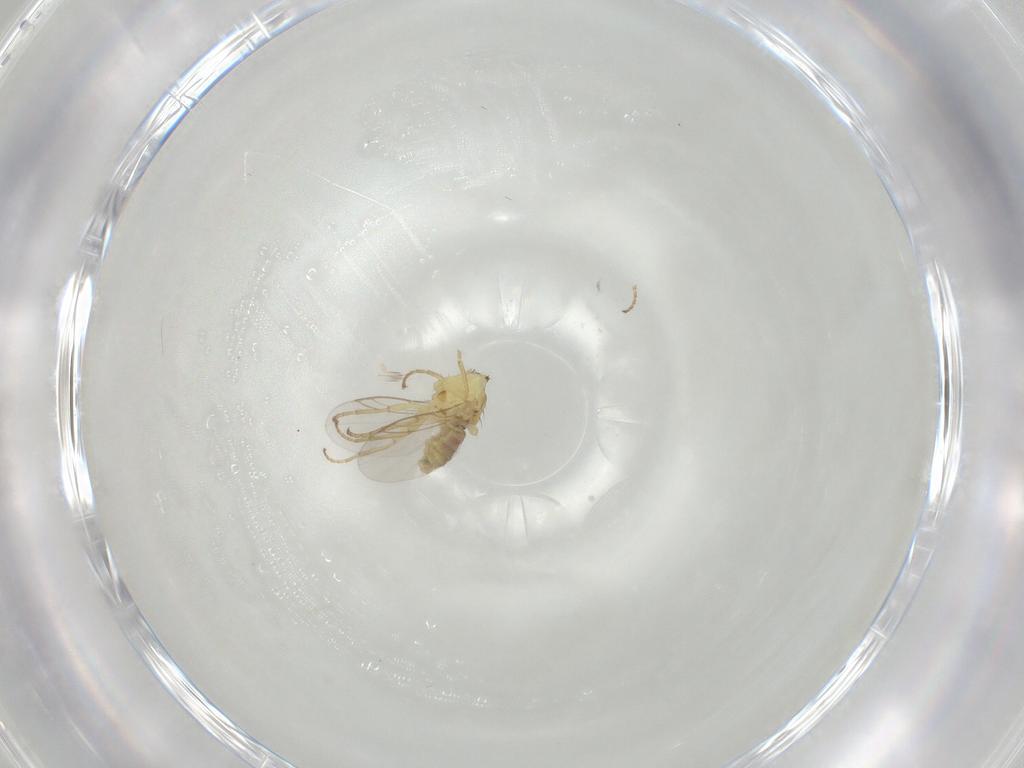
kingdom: Animalia
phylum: Arthropoda
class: Insecta
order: Diptera
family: Agromyzidae
